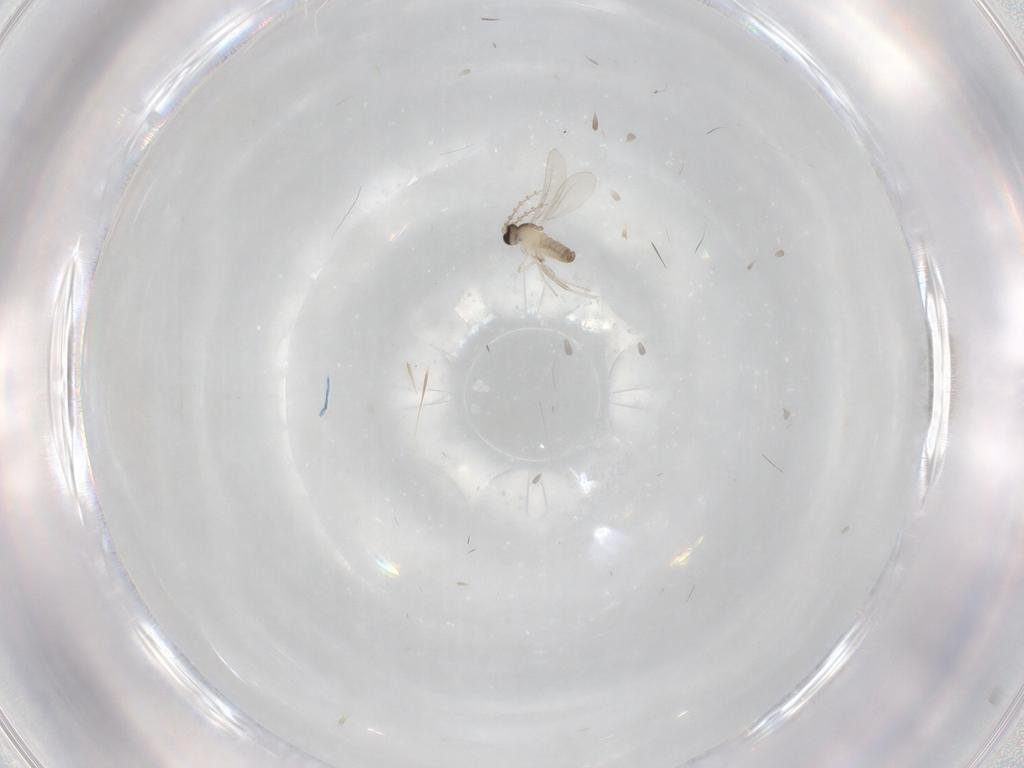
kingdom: Animalia
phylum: Arthropoda
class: Insecta
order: Diptera
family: Cecidomyiidae
